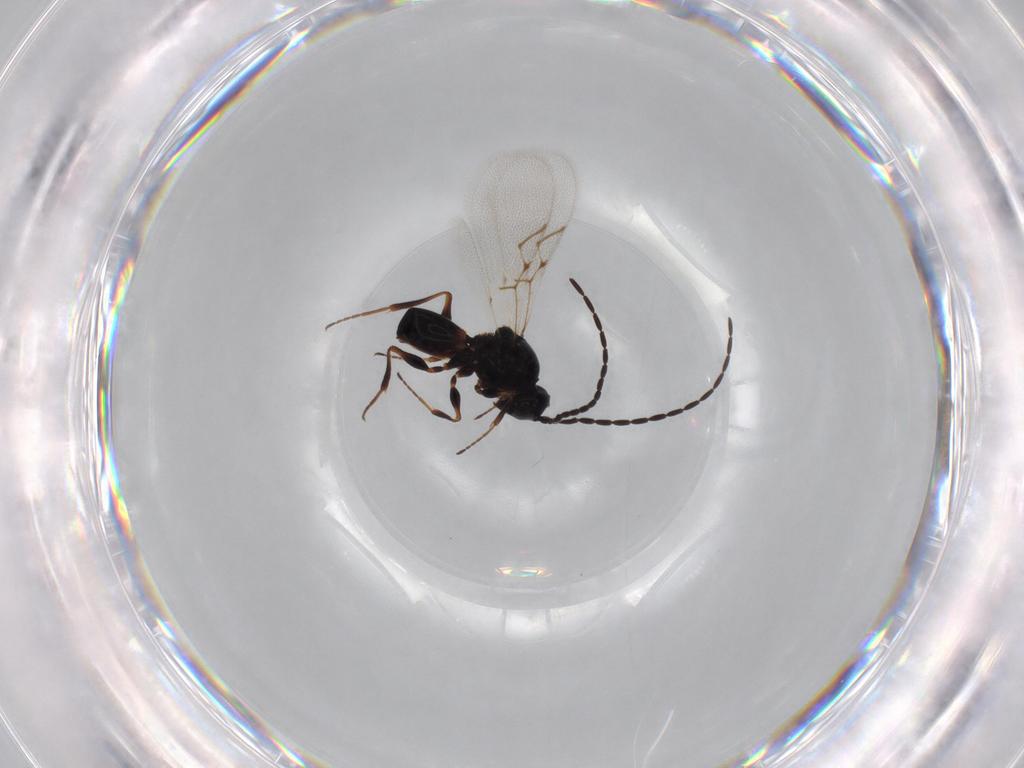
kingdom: Animalia
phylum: Arthropoda
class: Insecta
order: Hymenoptera
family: Figitidae
